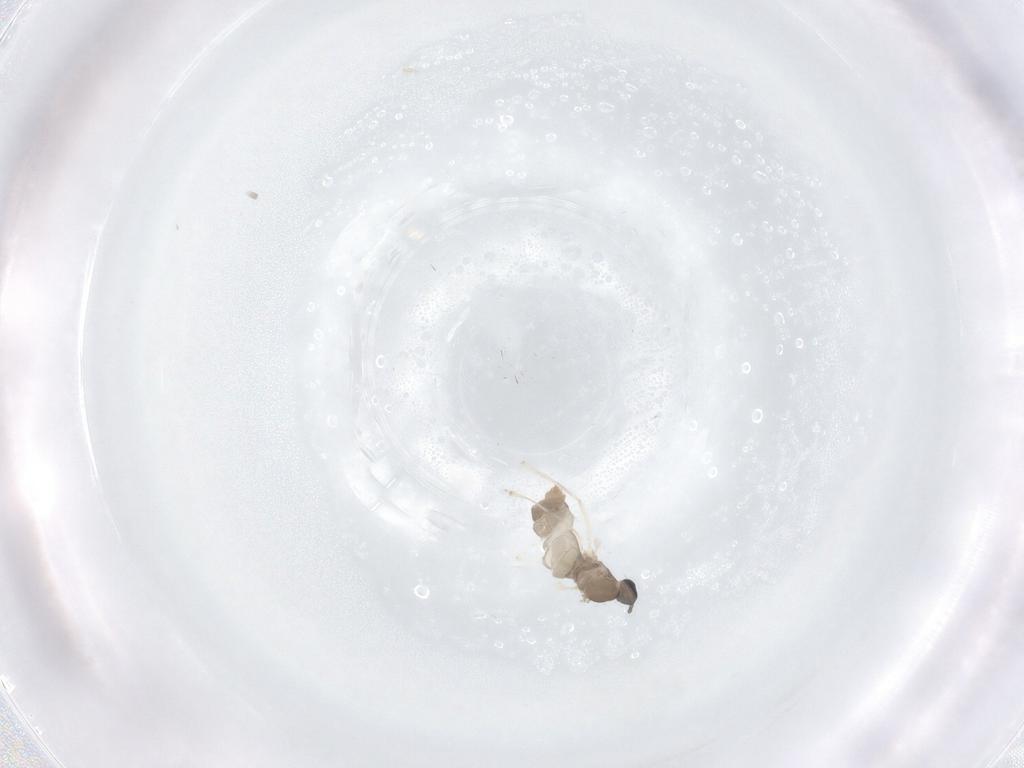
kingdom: Animalia
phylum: Arthropoda
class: Insecta
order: Diptera
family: Cecidomyiidae
